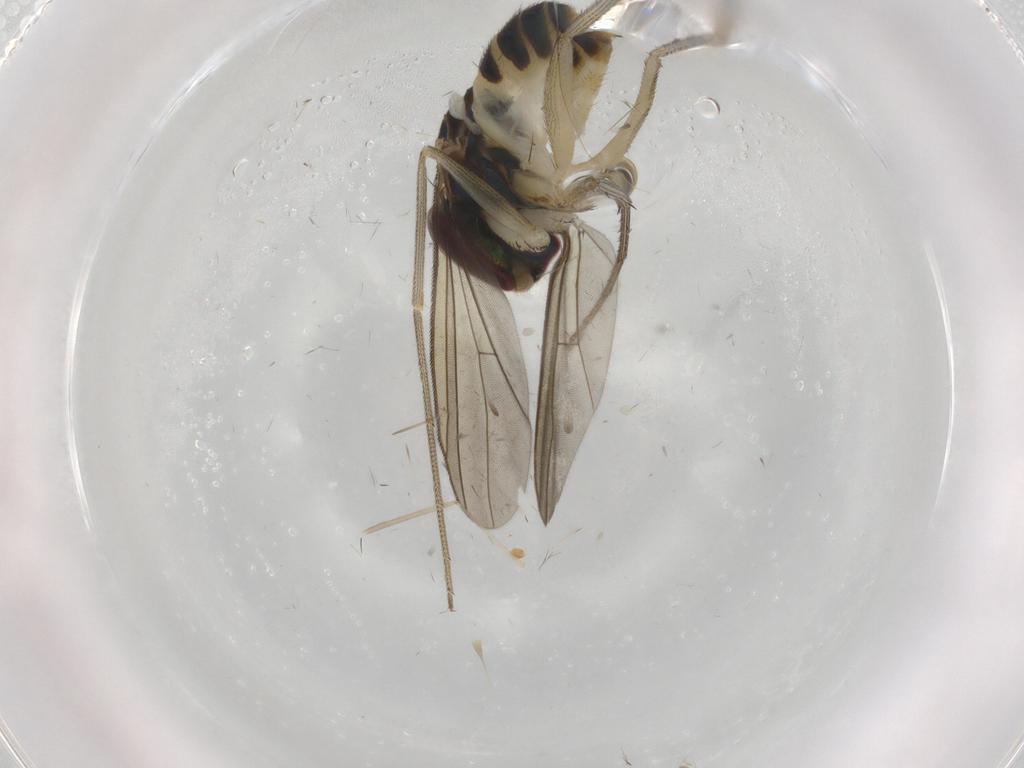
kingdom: Animalia
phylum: Arthropoda
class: Insecta
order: Diptera
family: Dolichopodidae
